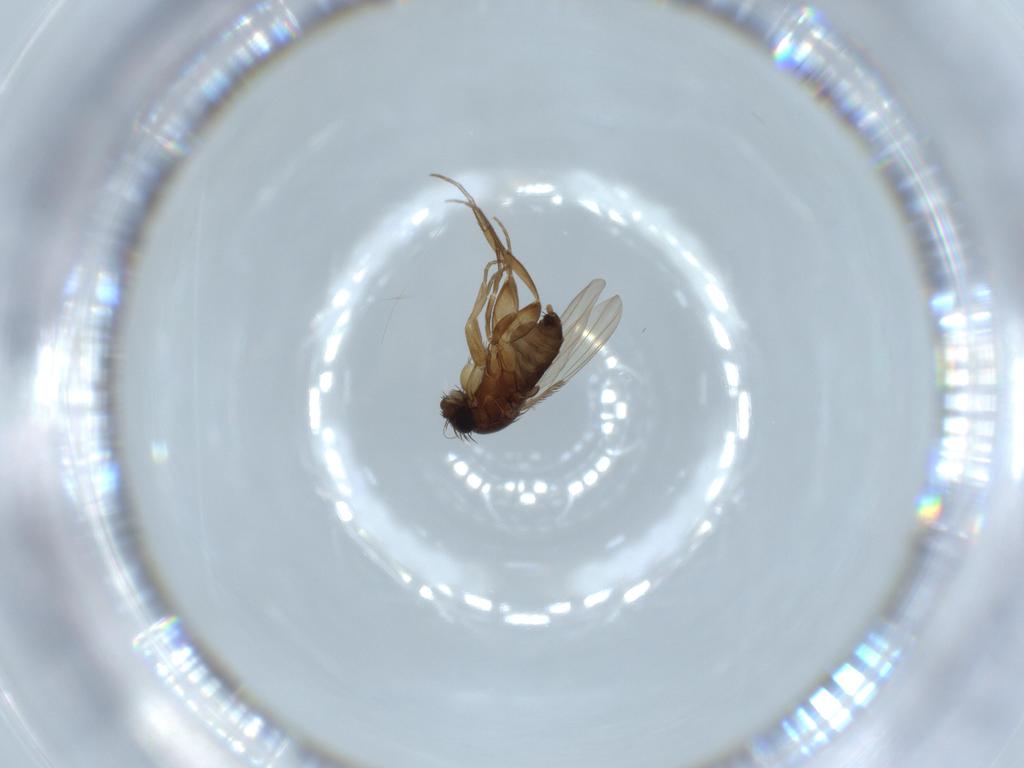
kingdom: Animalia
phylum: Arthropoda
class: Insecta
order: Diptera
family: Phoridae
